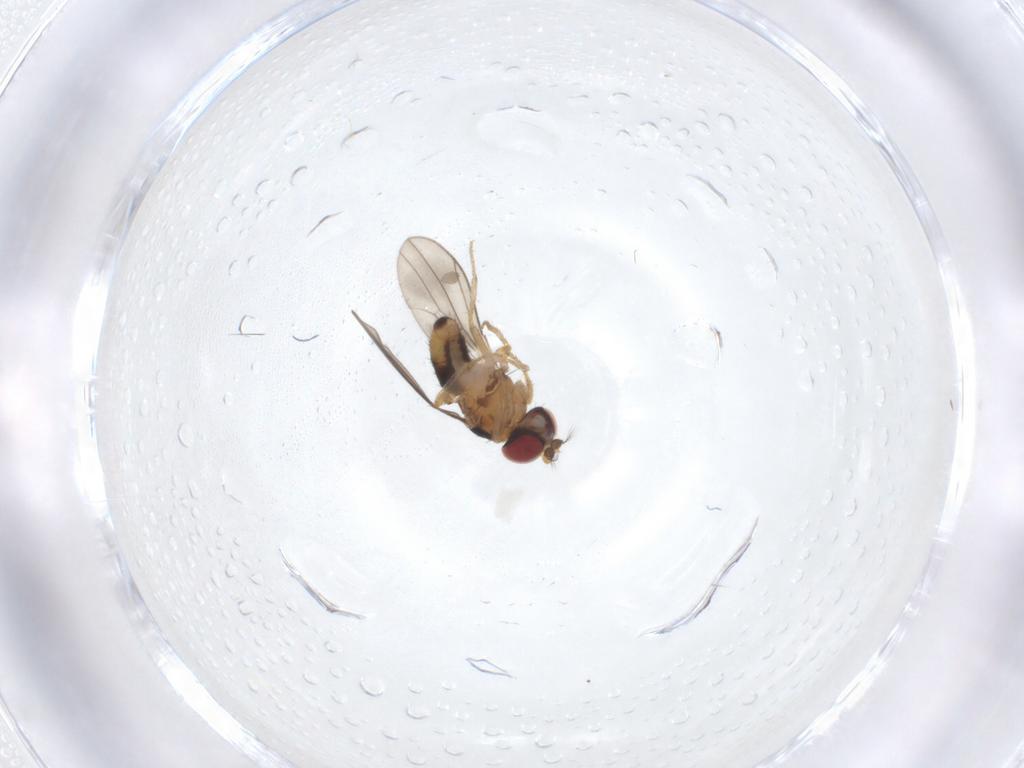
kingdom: Animalia
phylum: Arthropoda
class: Insecta
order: Diptera
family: Drosophilidae
